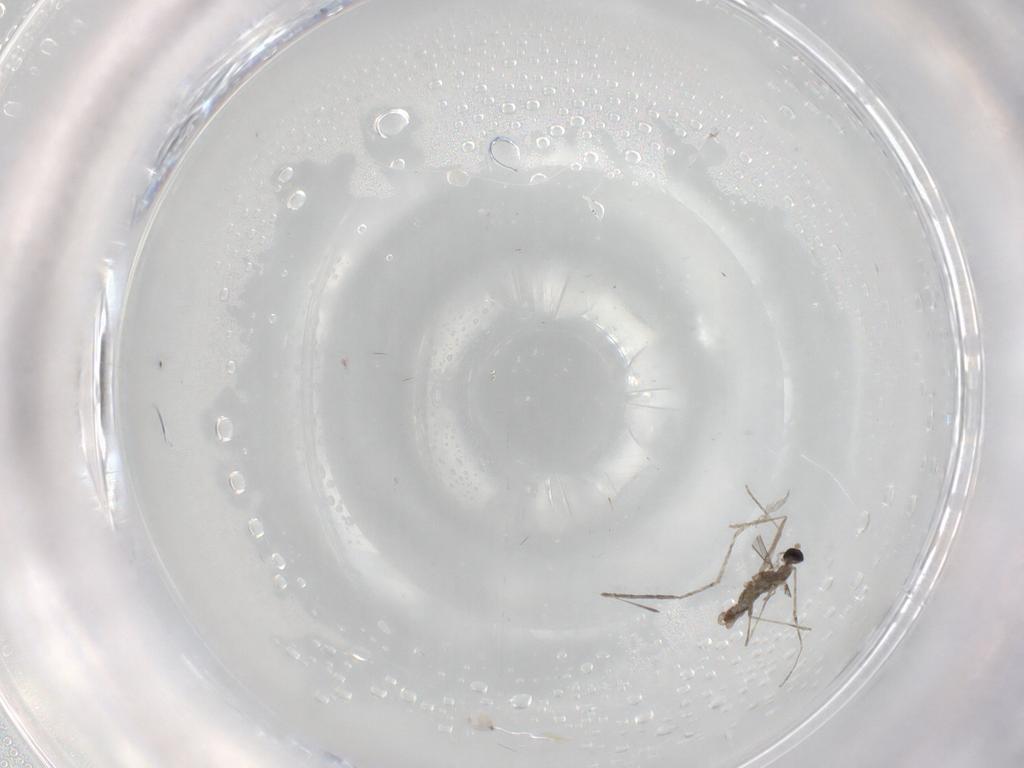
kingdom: Animalia
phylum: Arthropoda
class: Insecta
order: Diptera
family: Cecidomyiidae
